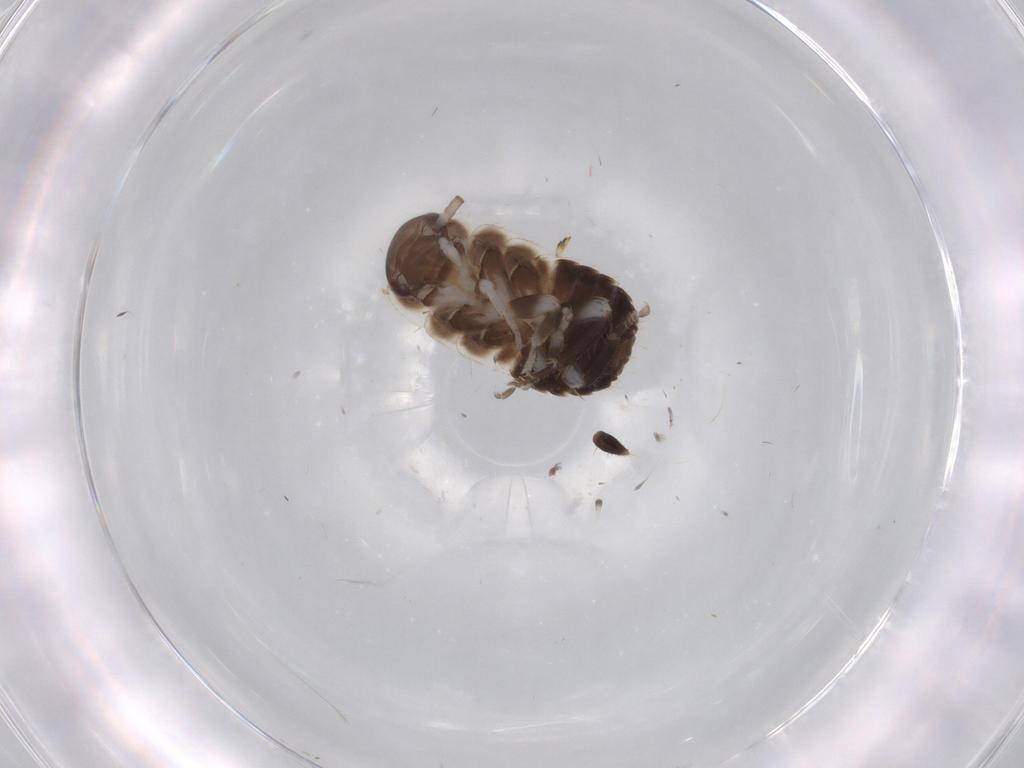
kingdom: Animalia
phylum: Arthropoda
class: Insecta
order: Blattodea
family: Ectobiidae
